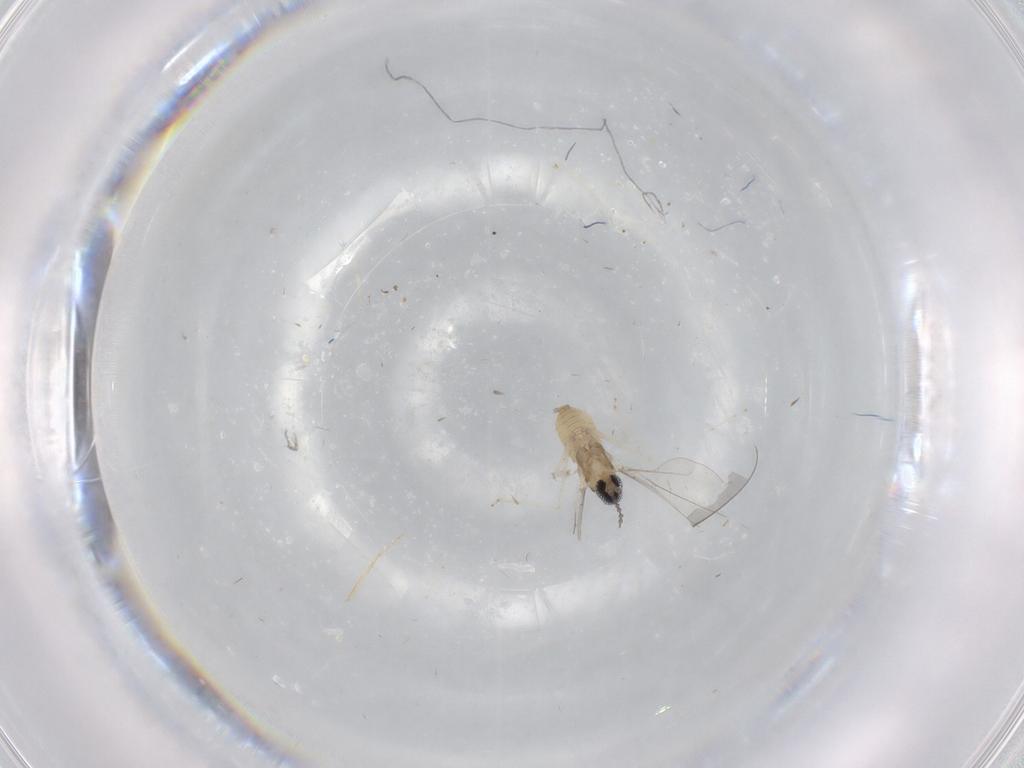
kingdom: Animalia
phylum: Arthropoda
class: Insecta
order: Diptera
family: Cecidomyiidae
